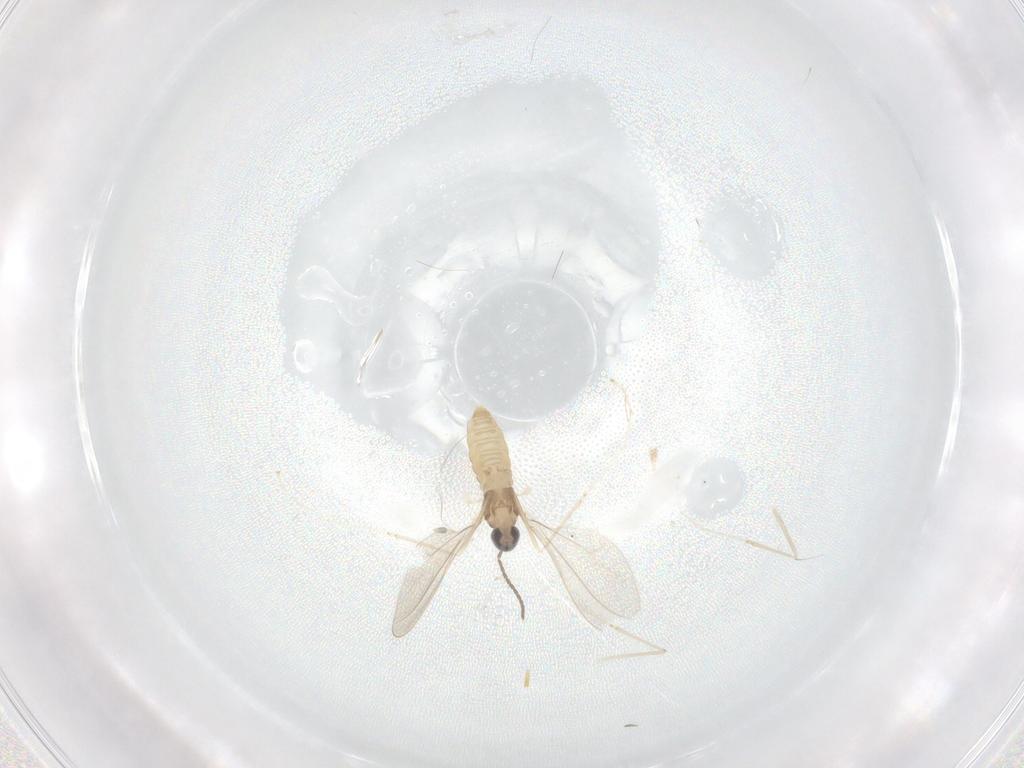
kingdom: Animalia
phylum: Arthropoda
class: Insecta
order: Diptera
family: Cecidomyiidae
